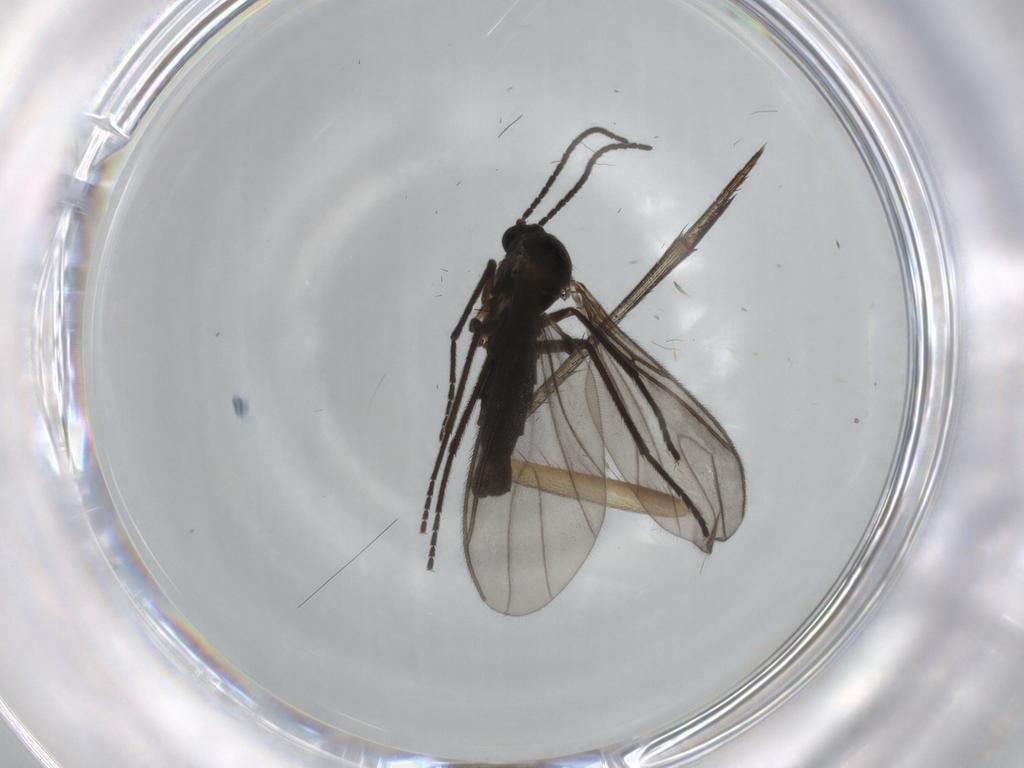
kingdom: Animalia
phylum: Arthropoda
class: Insecta
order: Diptera
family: Sciaridae
